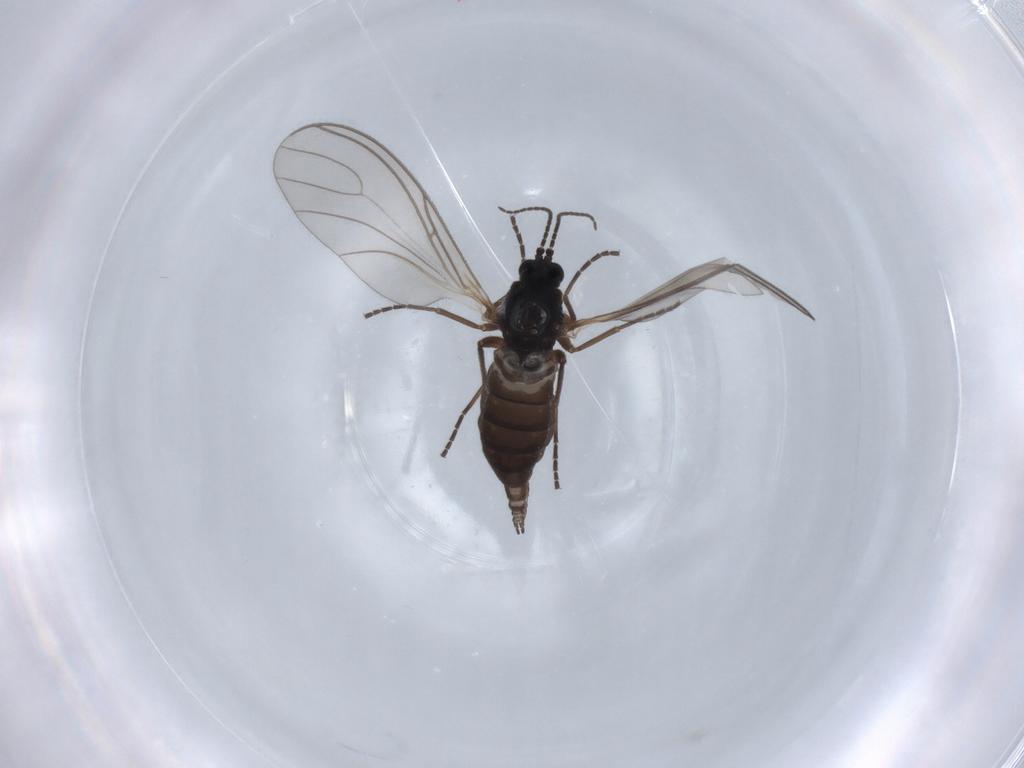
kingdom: Animalia
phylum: Arthropoda
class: Insecta
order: Diptera
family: Sciaridae
